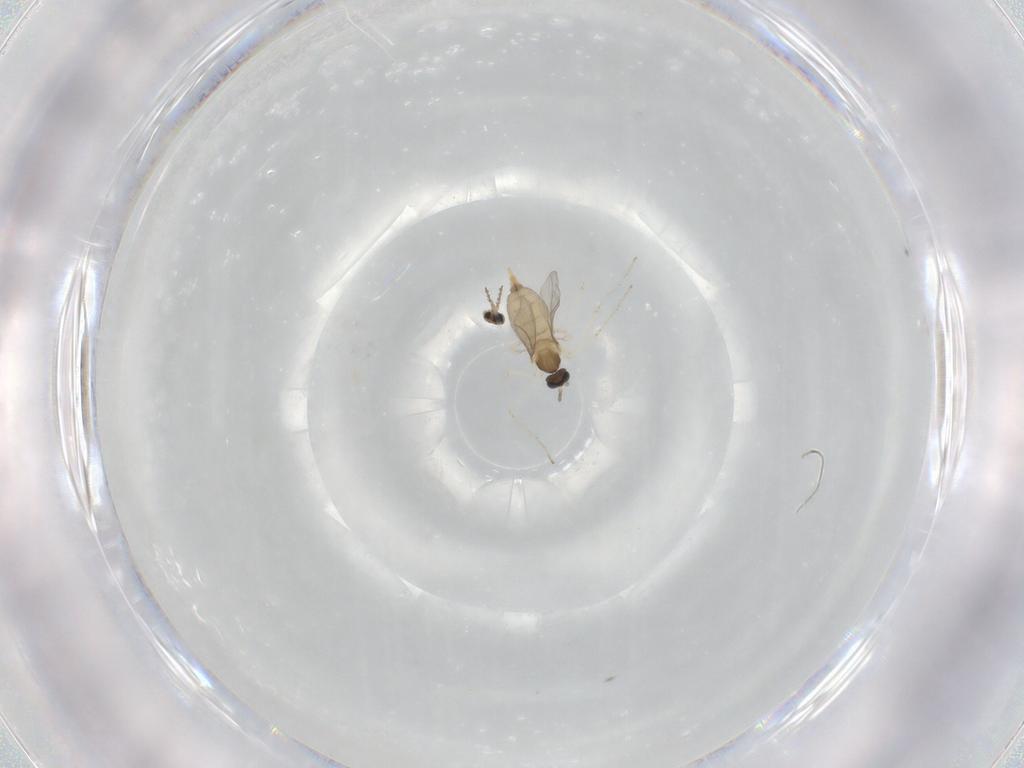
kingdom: Animalia
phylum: Arthropoda
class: Insecta
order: Diptera
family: Cecidomyiidae
